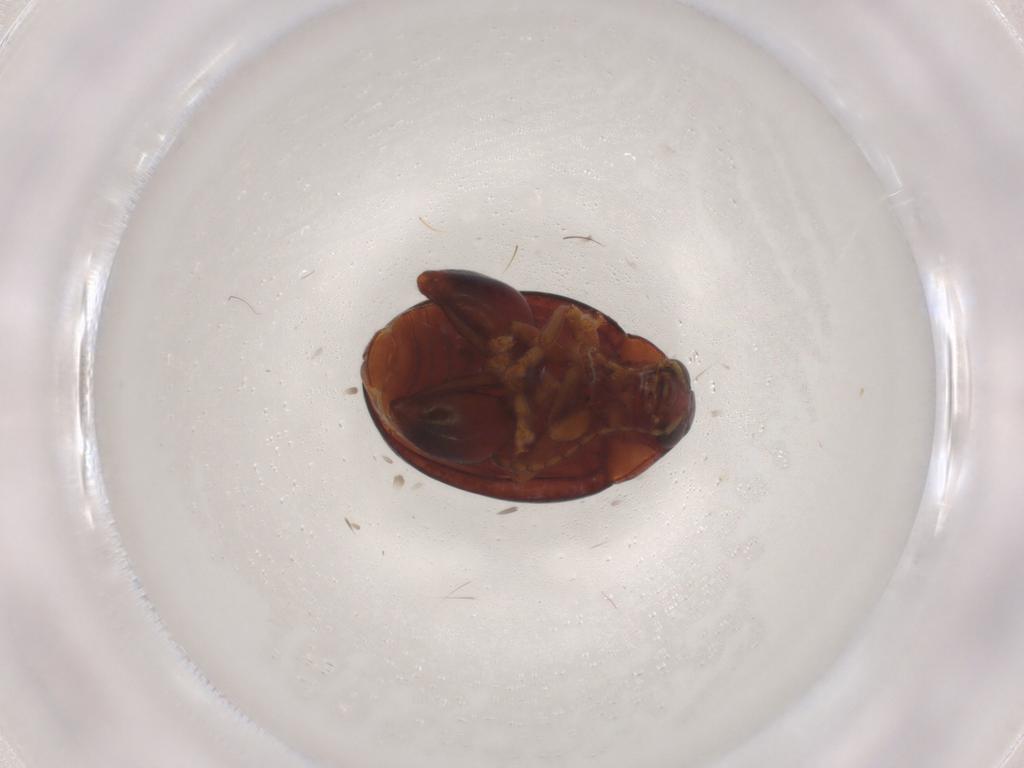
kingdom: Animalia
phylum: Arthropoda
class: Insecta
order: Coleoptera
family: Chrysomelidae
